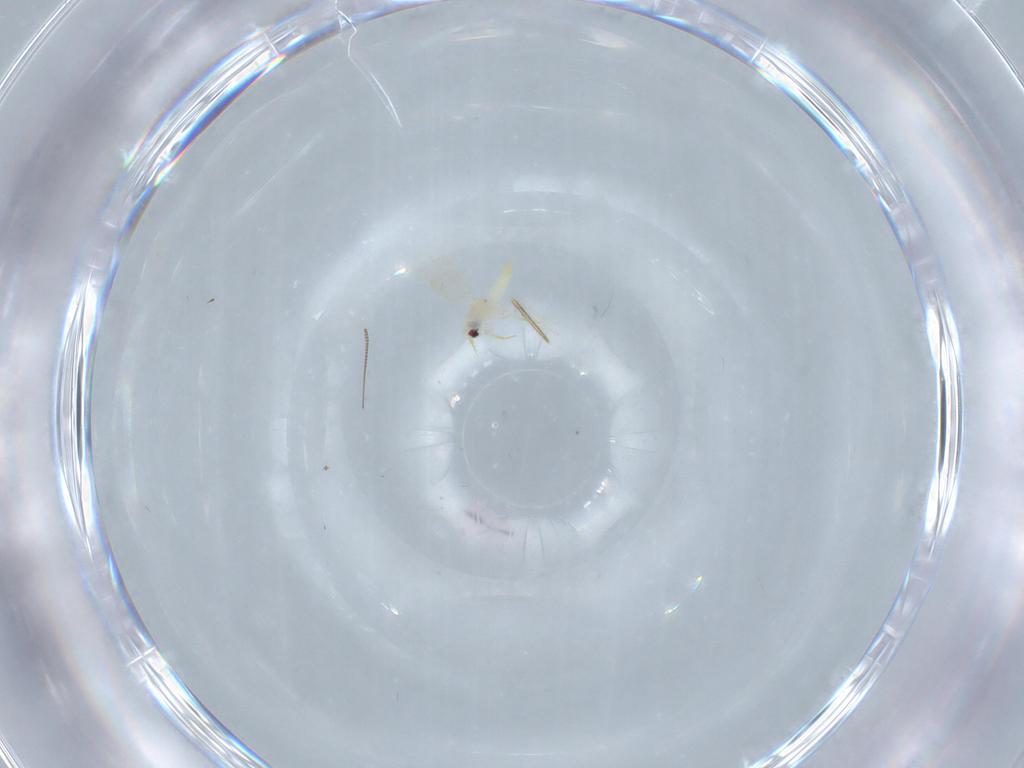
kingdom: Animalia
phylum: Arthropoda
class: Insecta
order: Hemiptera
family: Aleyrodidae
